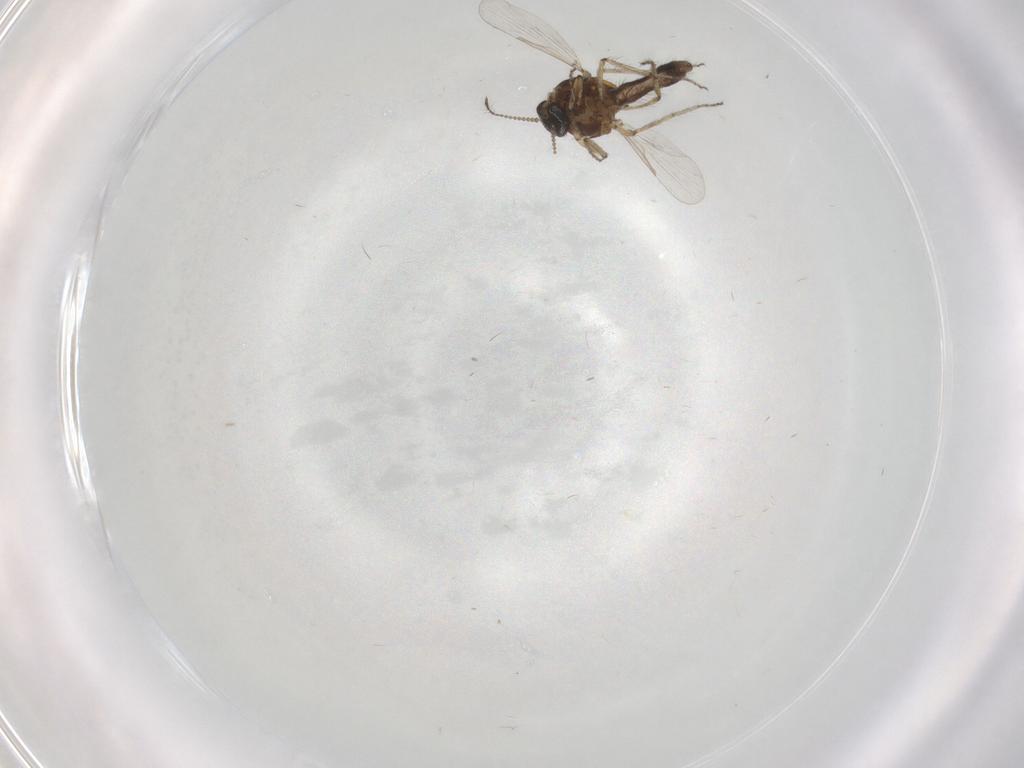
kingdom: Animalia
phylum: Arthropoda
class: Insecta
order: Diptera
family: Ceratopogonidae
